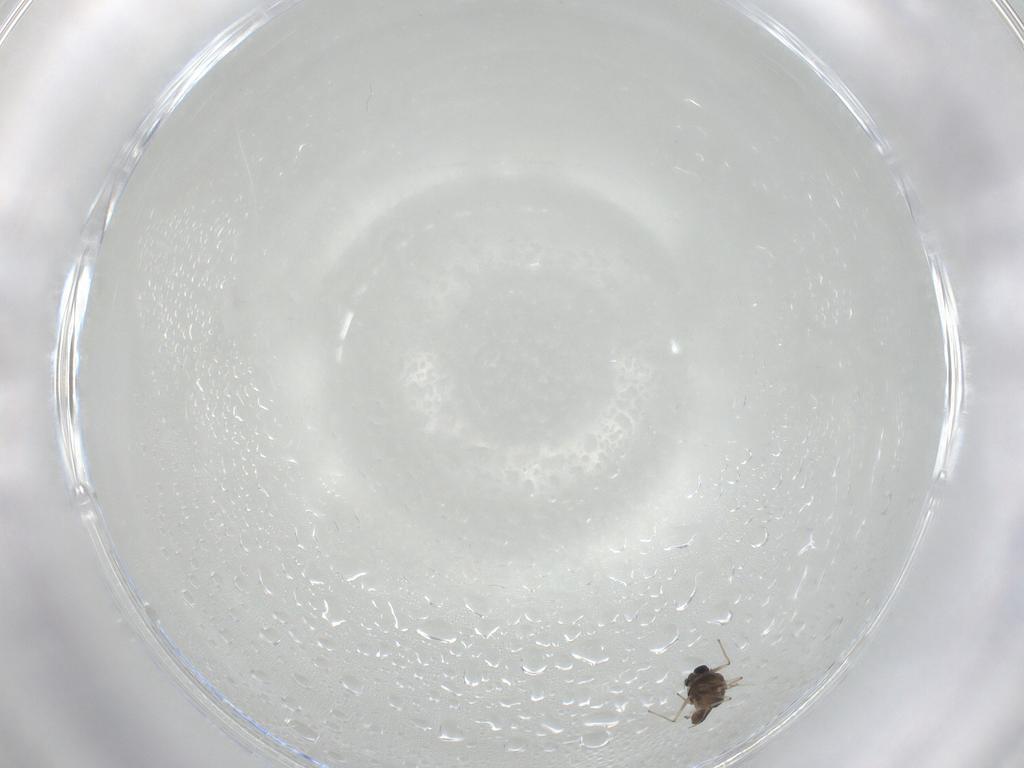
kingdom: Animalia
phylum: Arthropoda
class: Insecta
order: Diptera
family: Chironomidae
